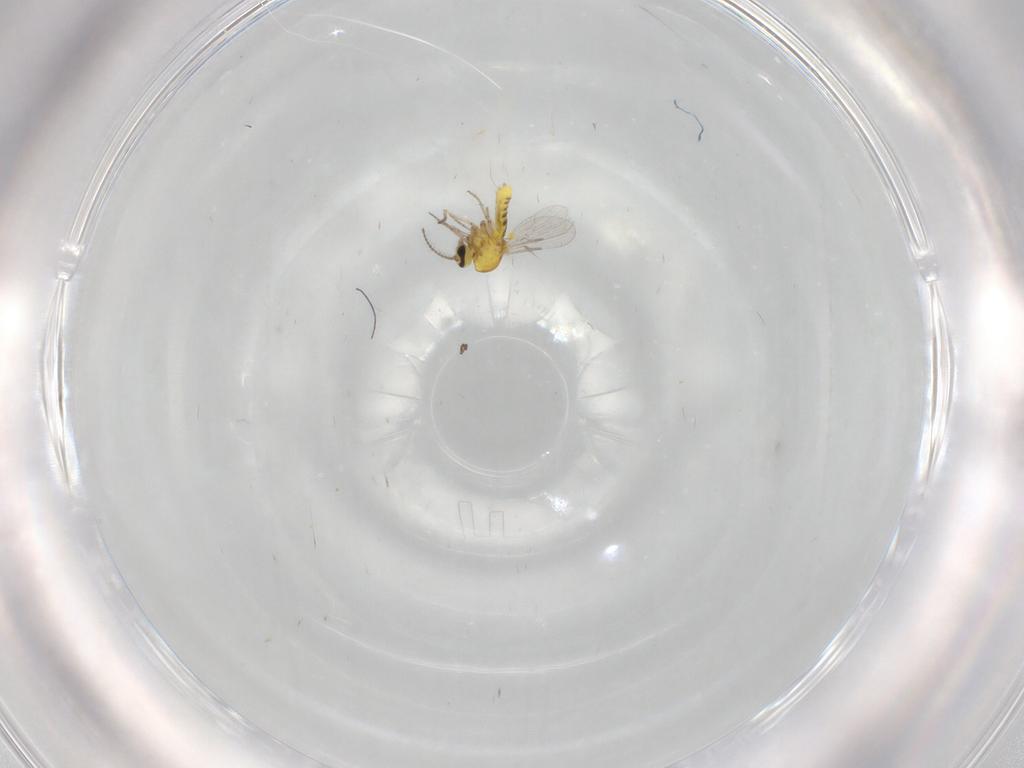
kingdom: Animalia
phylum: Arthropoda
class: Insecta
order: Diptera
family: Ceratopogonidae
